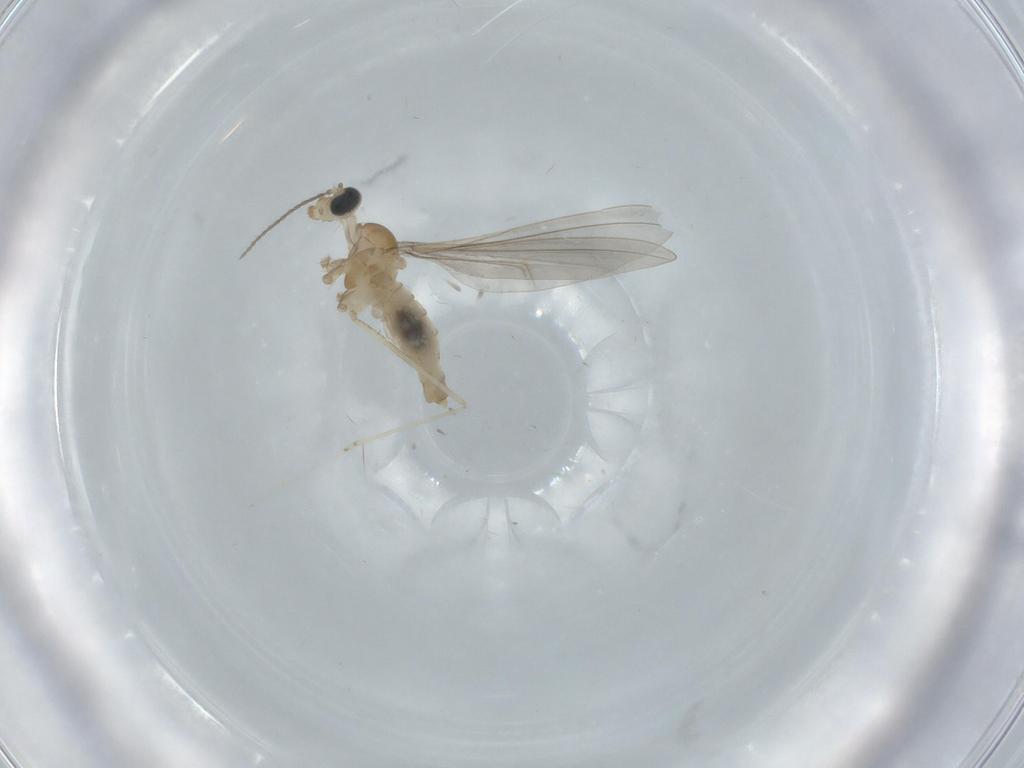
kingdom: Animalia
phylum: Arthropoda
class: Insecta
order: Diptera
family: Cecidomyiidae
